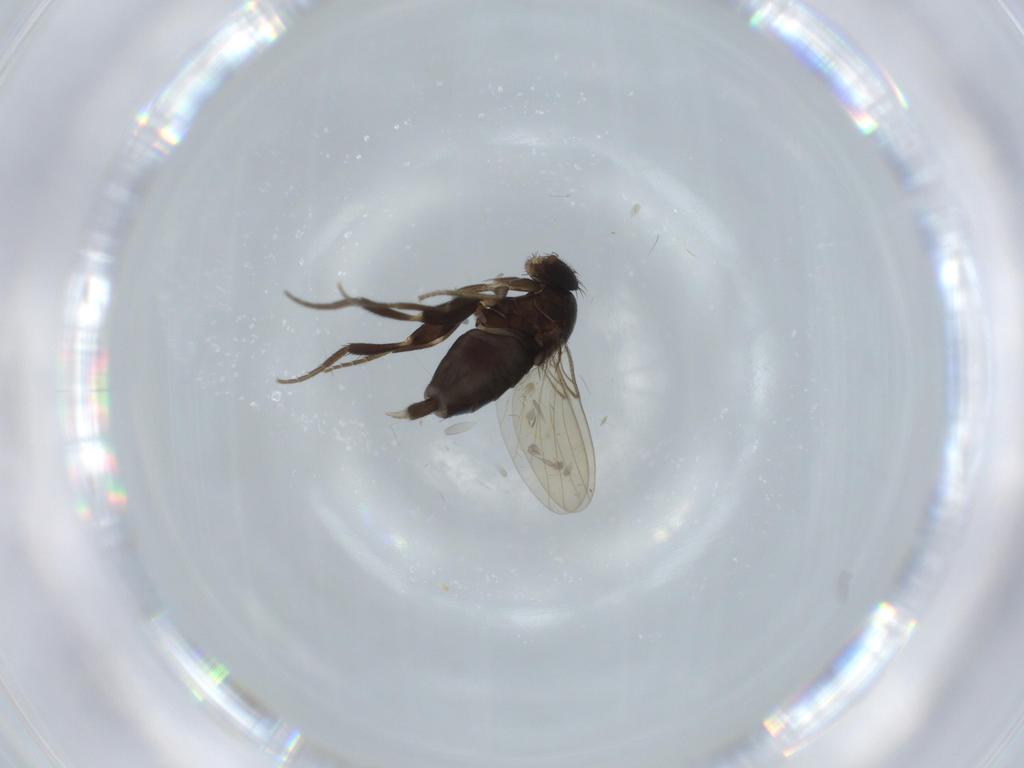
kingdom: Animalia
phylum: Arthropoda
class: Insecta
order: Diptera
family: Phoridae
